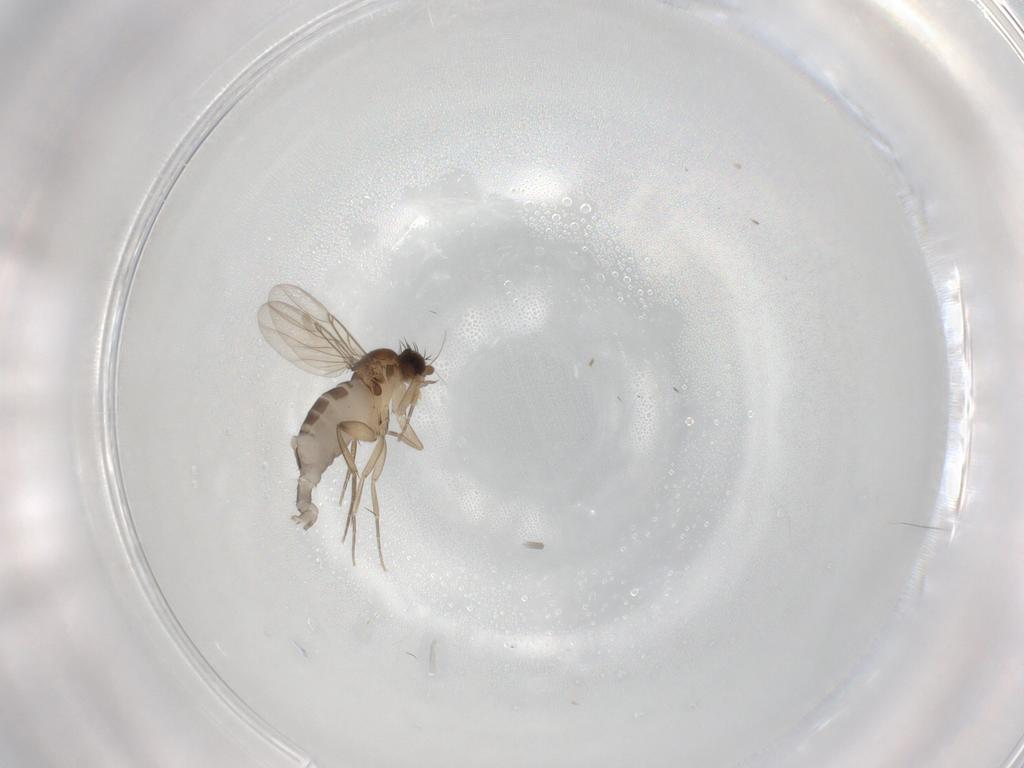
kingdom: Animalia
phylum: Arthropoda
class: Insecta
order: Diptera
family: Phoridae
